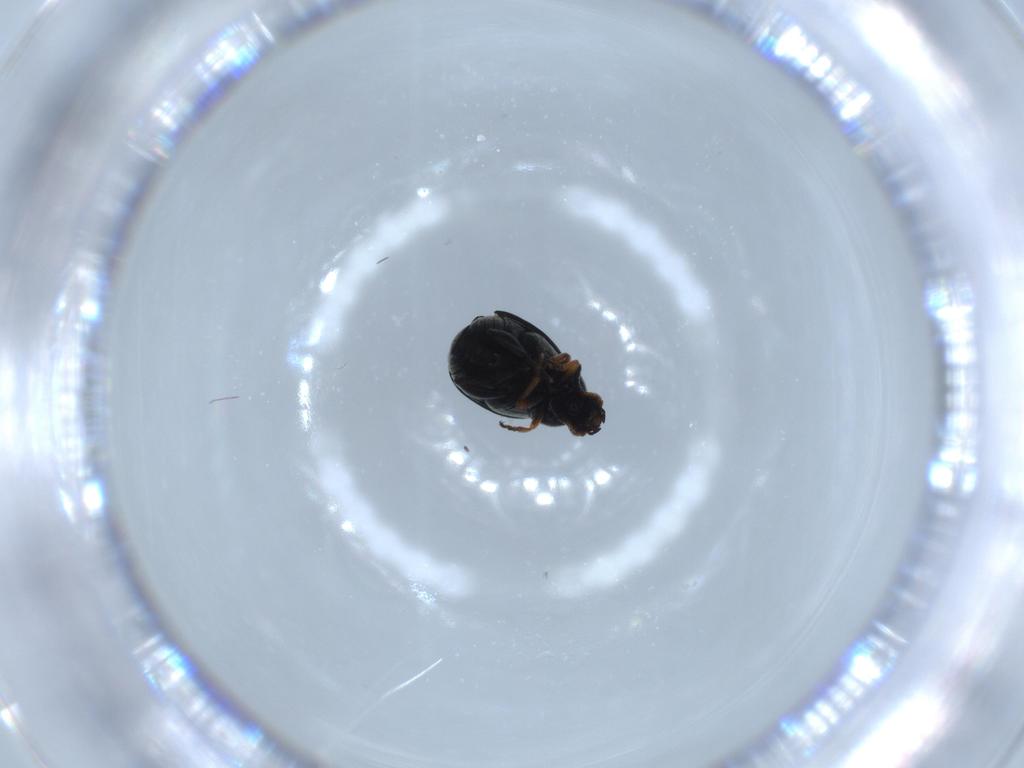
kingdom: Animalia
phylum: Arthropoda
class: Insecta
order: Coleoptera
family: Chrysomelidae
